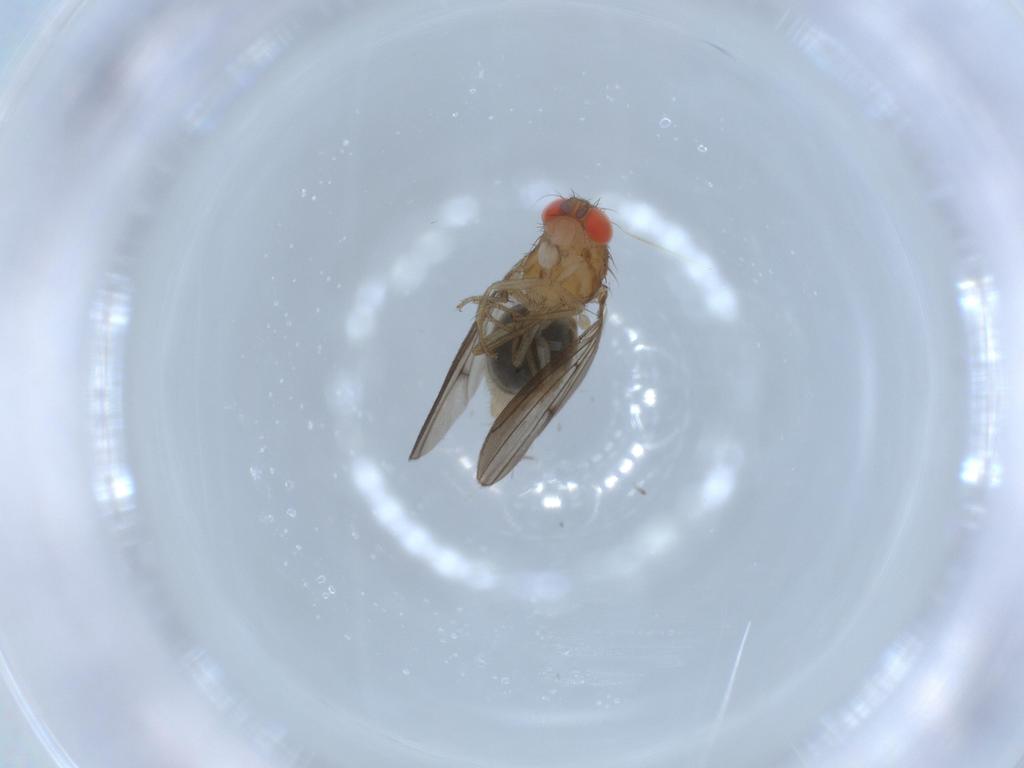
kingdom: Animalia
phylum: Arthropoda
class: Insecta
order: Diptera
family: Drosophilidae
